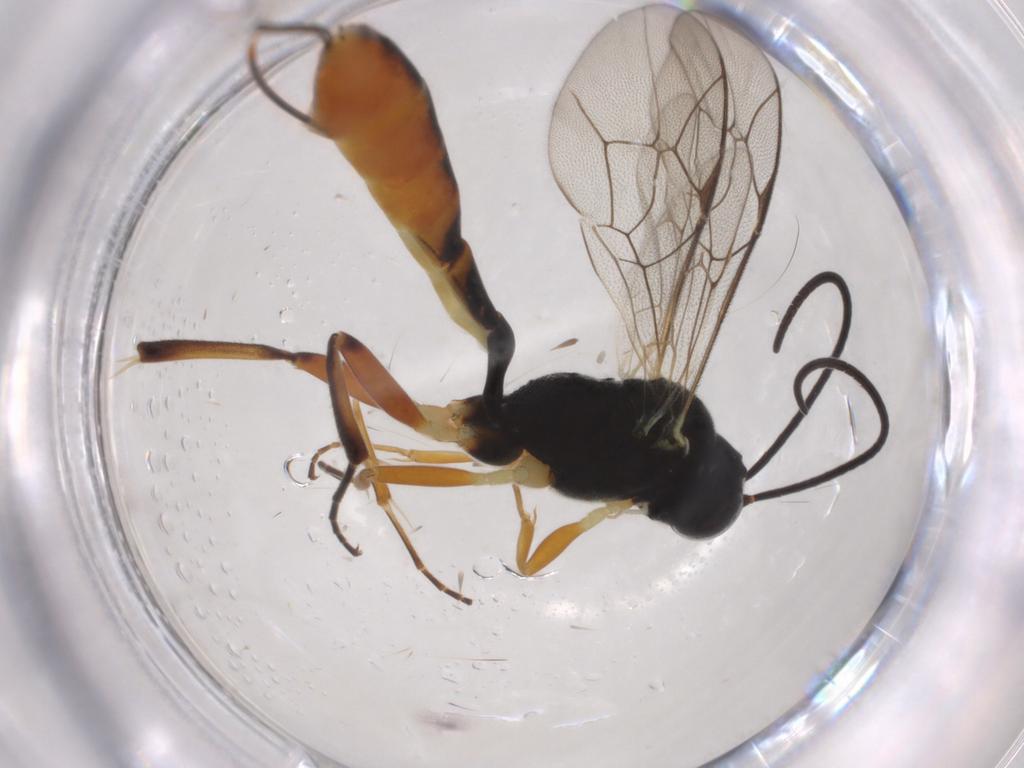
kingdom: Animalia
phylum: Arthropoda
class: Insecta
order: Hymenoptera
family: Ichneumonidae
